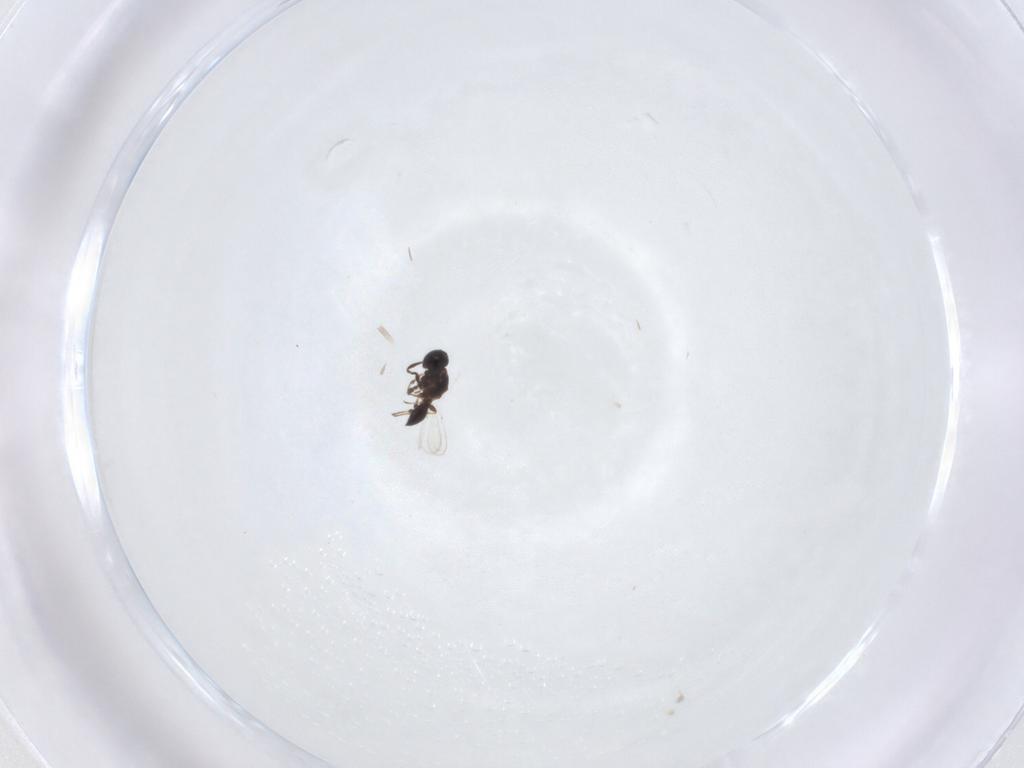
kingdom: Animalia
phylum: Arthropoda
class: Insecta
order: Hymenoptera
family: Platygastridae
